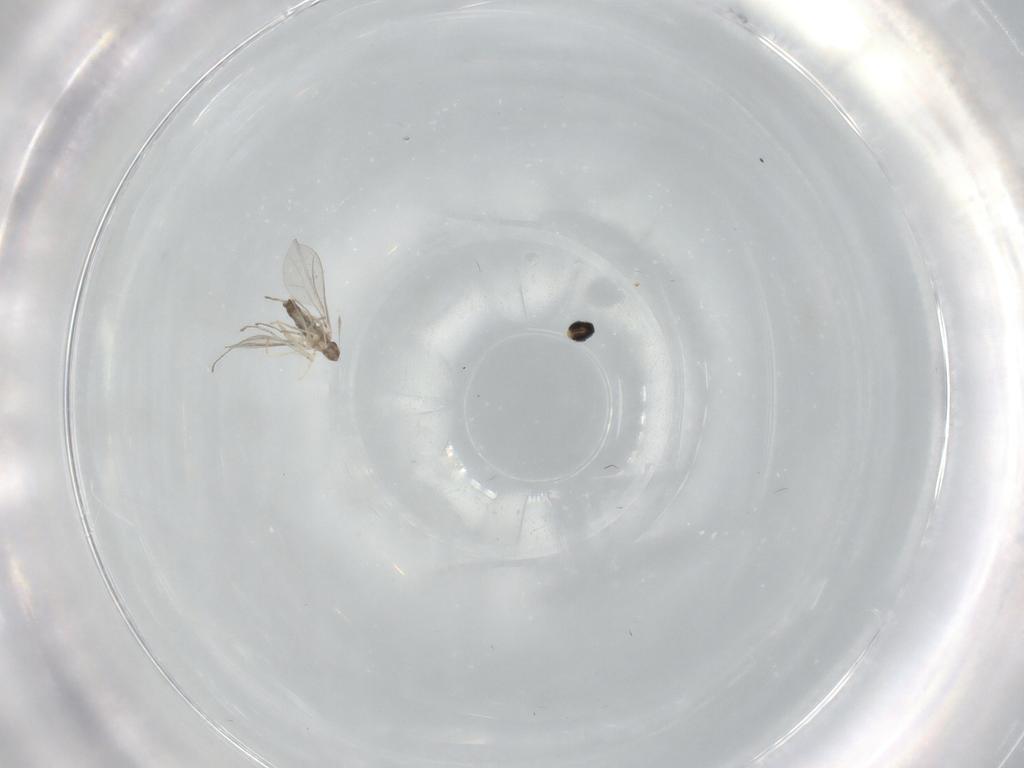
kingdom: Animalia
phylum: Arthropoda
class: Insecta
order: Diptera
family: Cecidomyiidae
